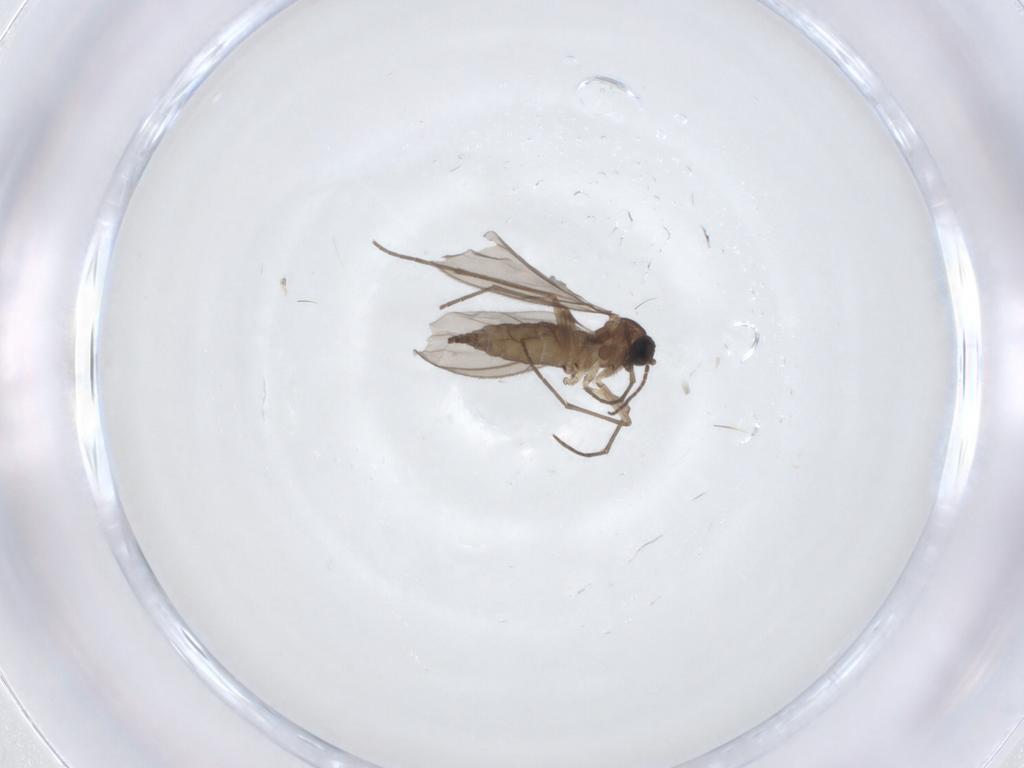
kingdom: Animalia
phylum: Arthropoda
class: Insecta
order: Diptera
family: Sciaridae
